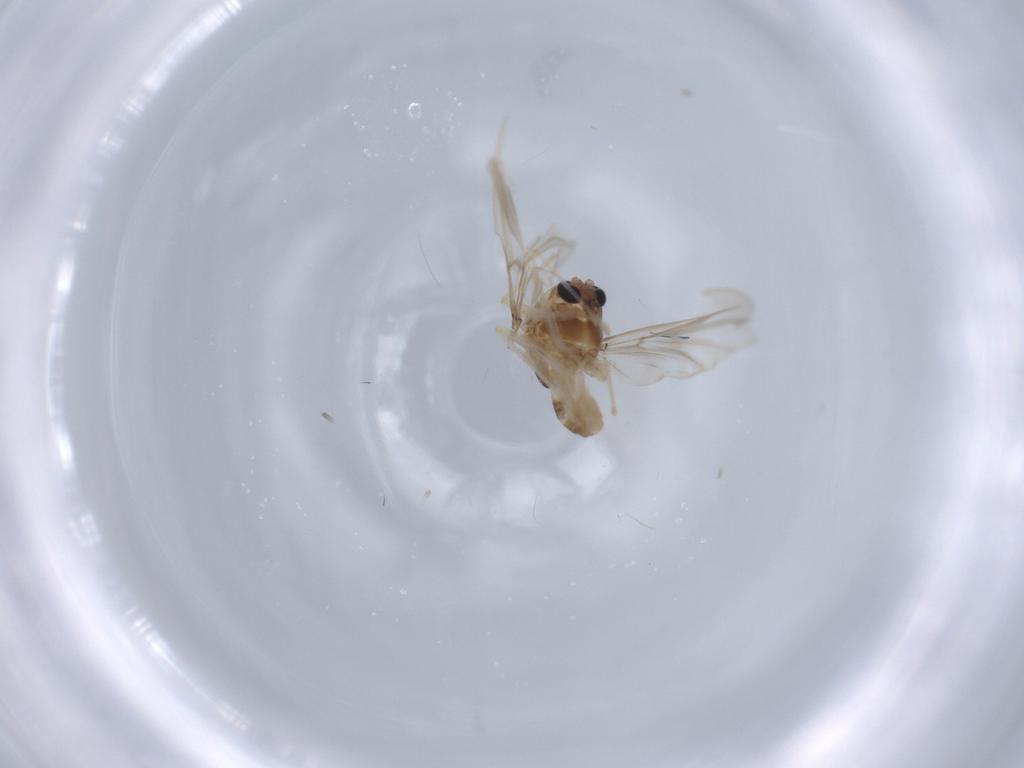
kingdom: Animalia
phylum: Arthropoda
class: Insecta
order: Diptera
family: Chironomidae
